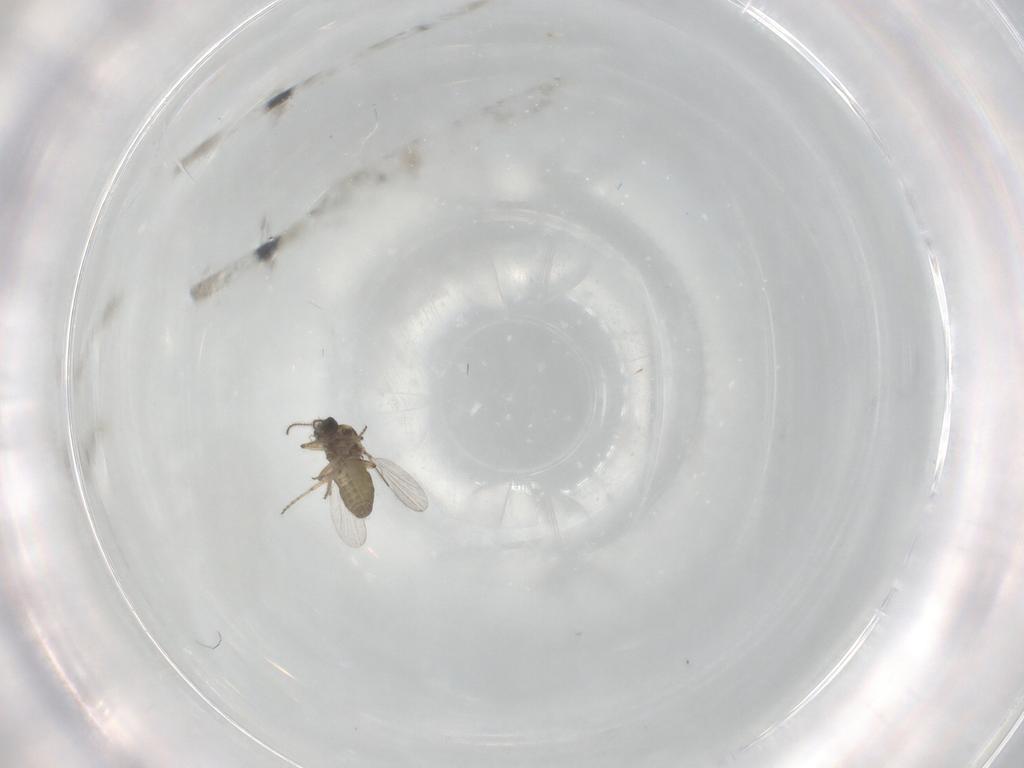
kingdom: Animalia
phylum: Arthropoda
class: Insecta
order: Diptera
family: Ceratopogonidae
